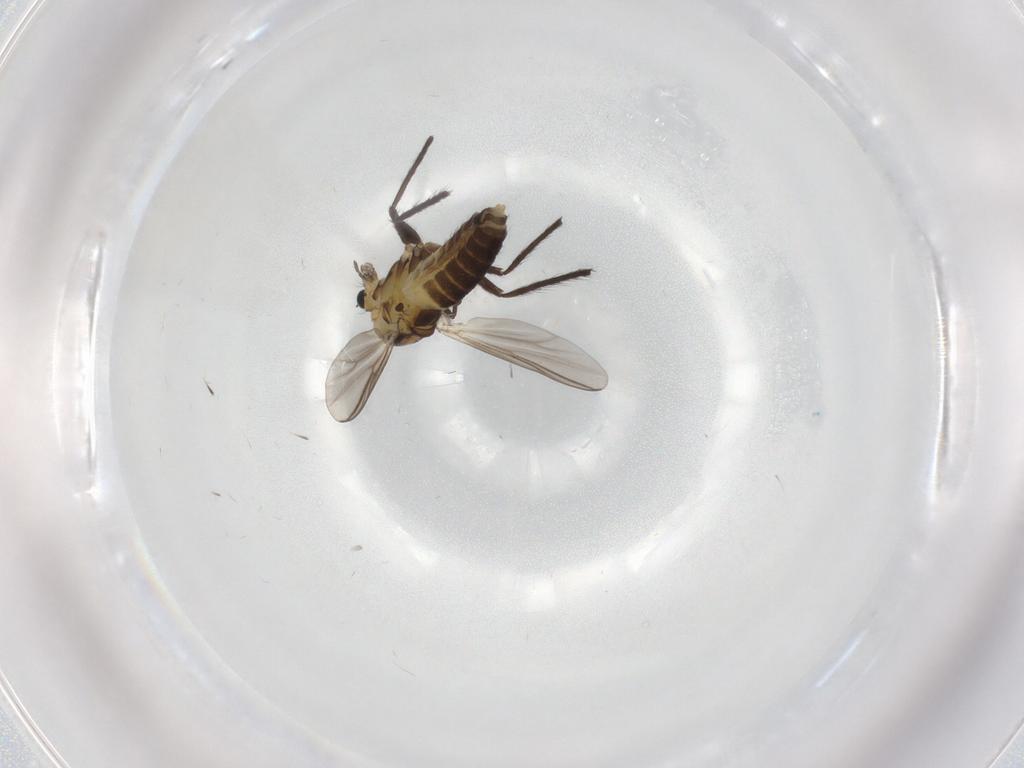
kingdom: Animalia
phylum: Arthropoda
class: Insecta
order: Diptera
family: Chironomidae
